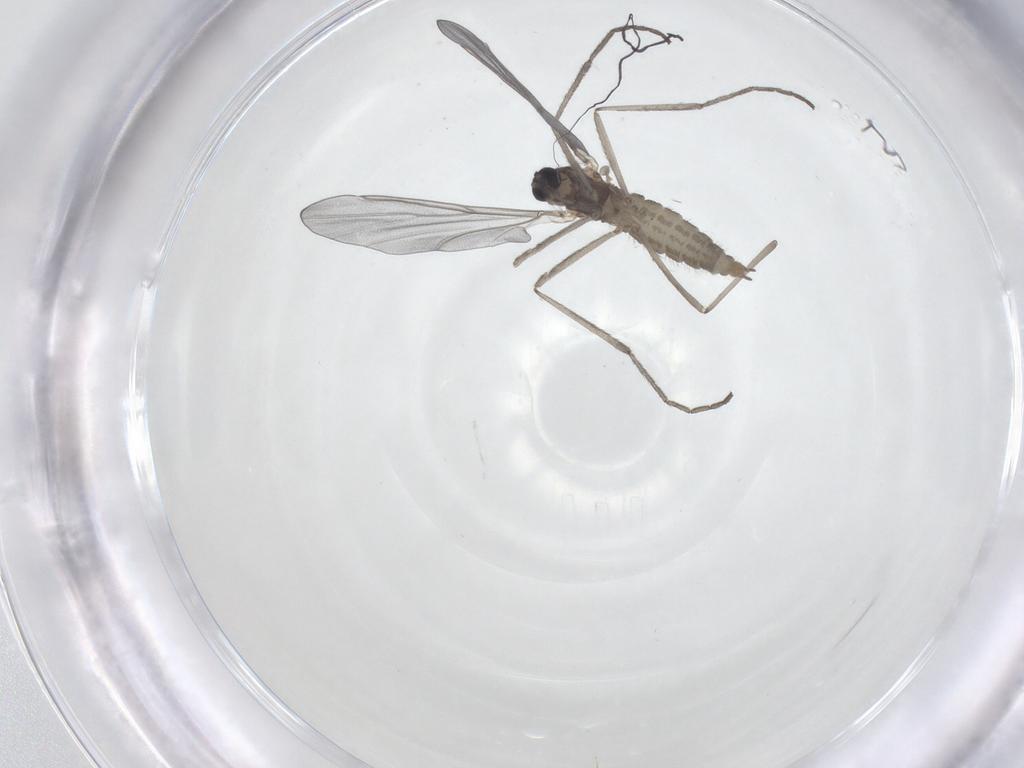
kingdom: Animalia
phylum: Arthropoda
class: Insecta
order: Diptera
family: Cecidomyiidae
